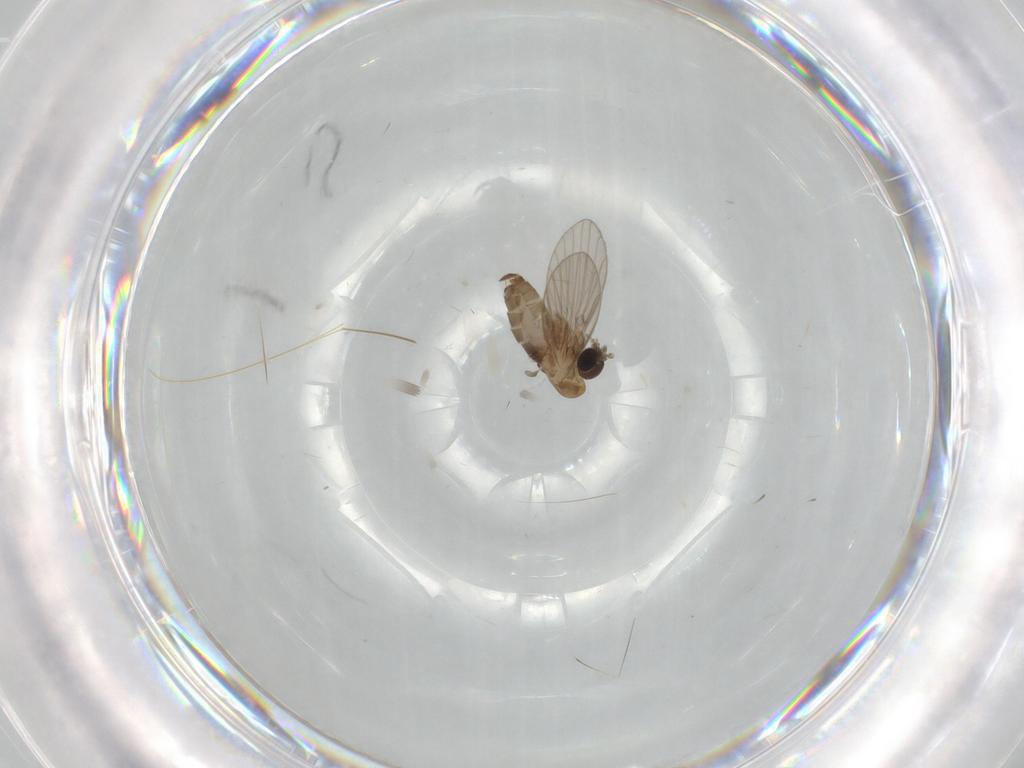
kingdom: Animalia
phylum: Arthropoda
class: Insecta
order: Diptera
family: Psychodidae
